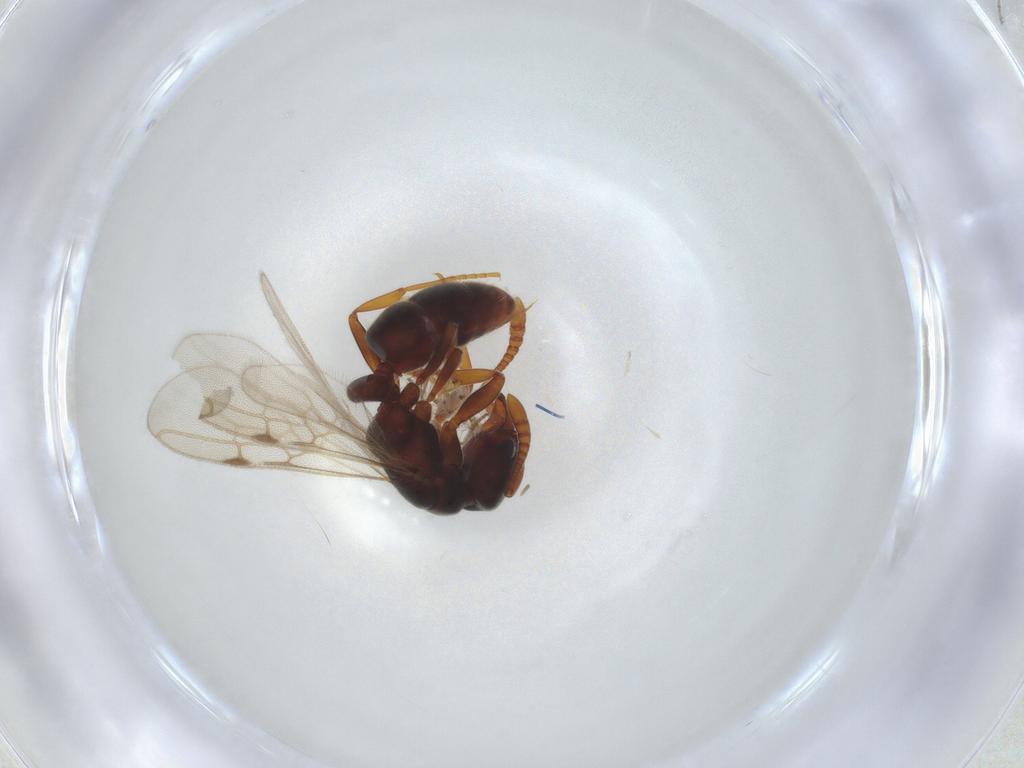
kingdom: Animalia
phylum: Arthropoda
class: Insecta
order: Hymenoptera
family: Formicidae
